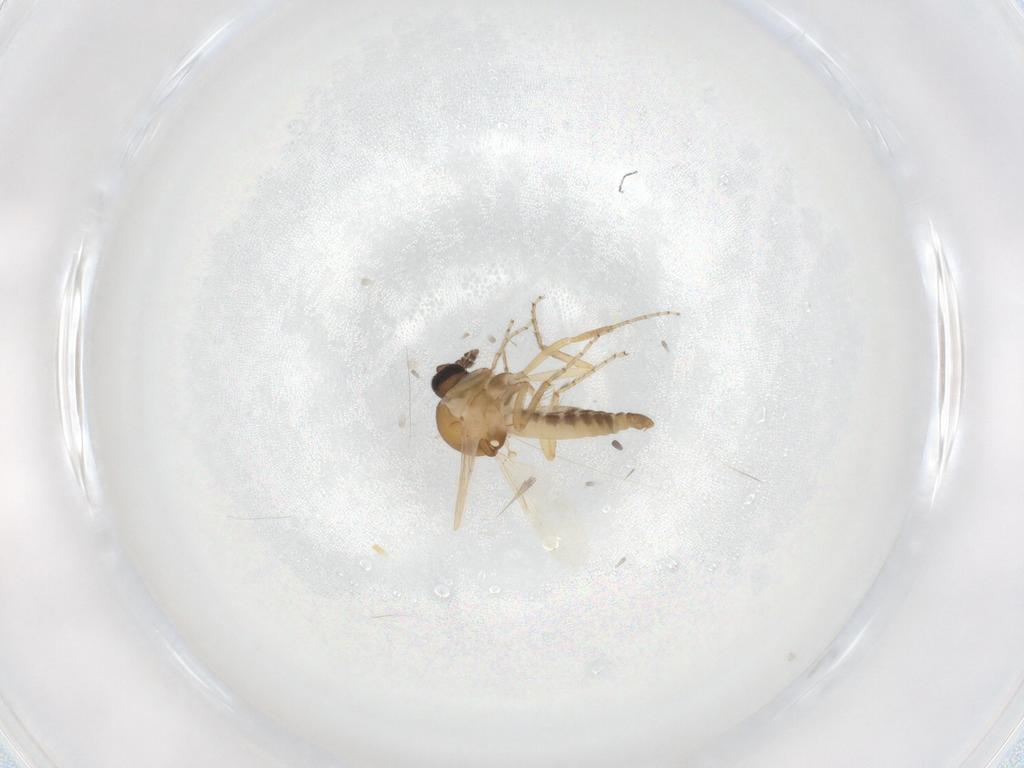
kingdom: Animalia
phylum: Arthropoda
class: Insecta
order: Diptera
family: Ceratopogonidae
